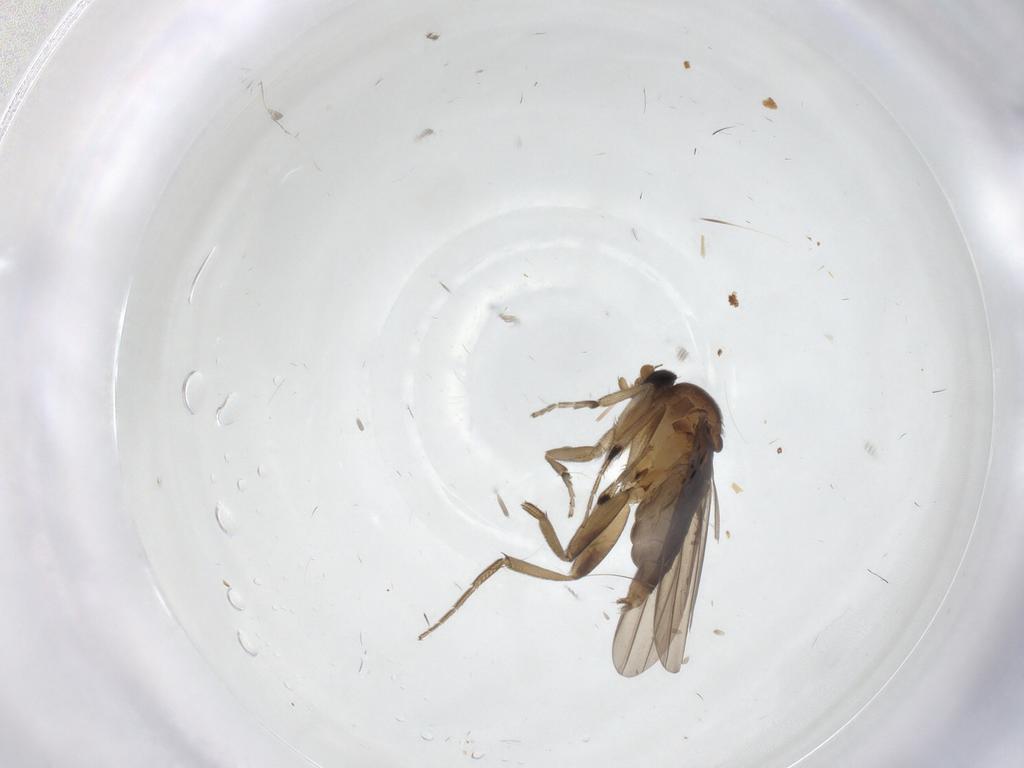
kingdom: Animalia
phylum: Arthropoda
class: Insecta
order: Diptera
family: Phoridae
